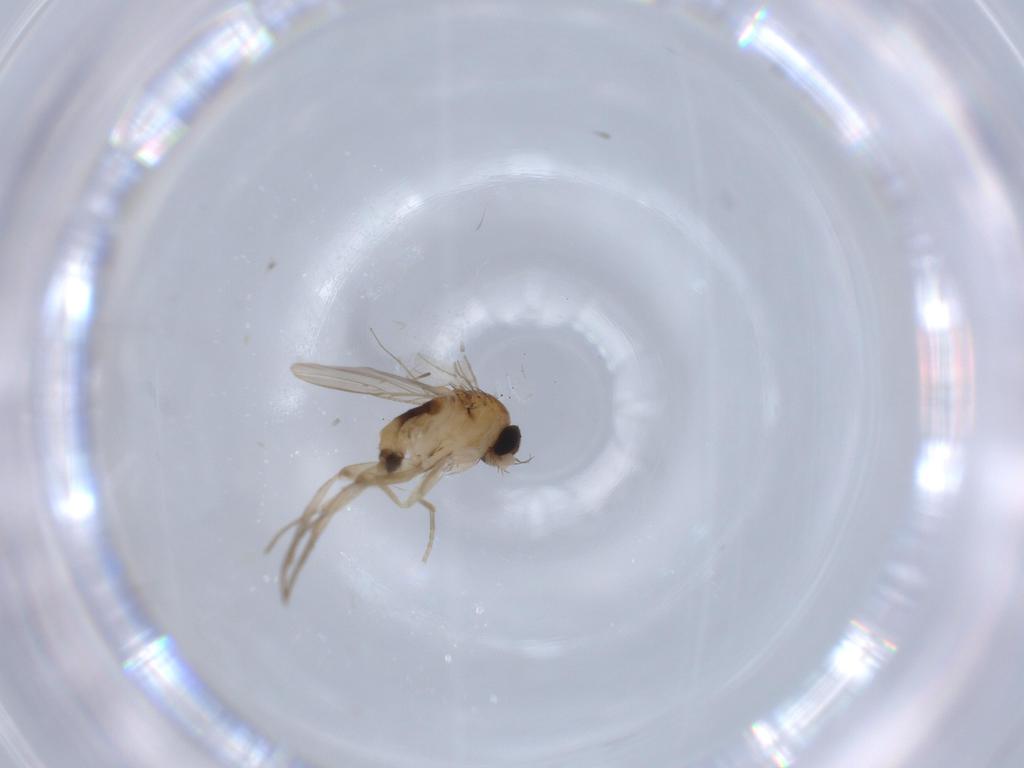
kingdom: Animalia
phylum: Arthropoda
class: Insecta
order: Diptera
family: Phoridae
